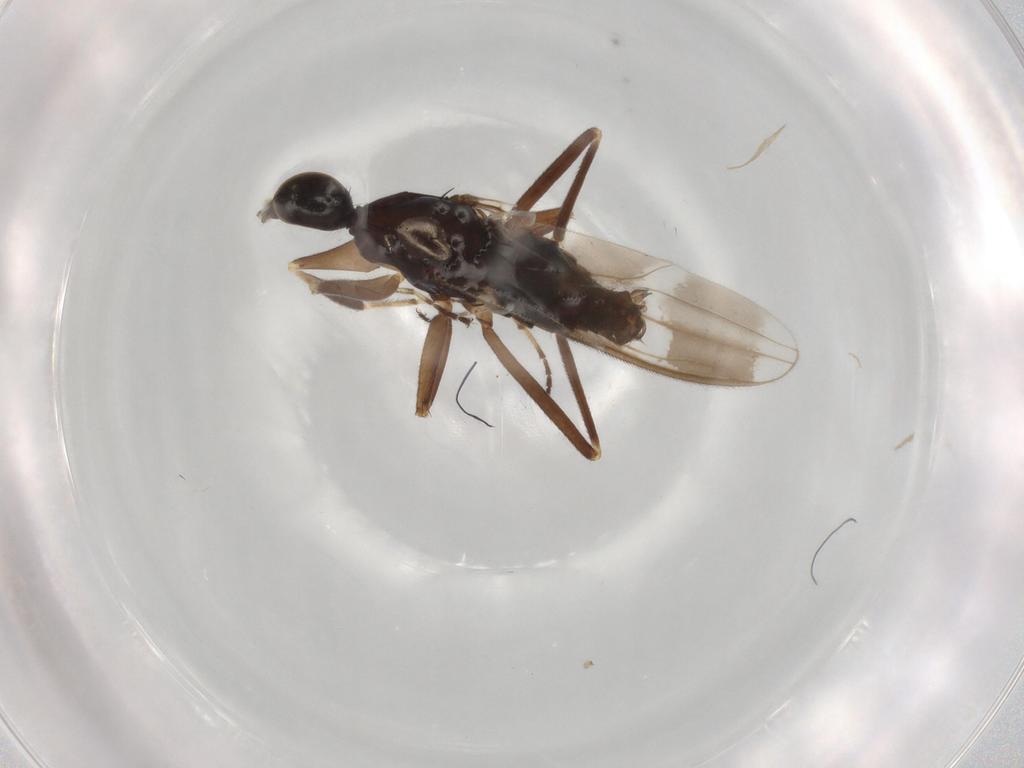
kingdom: Animalia
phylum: Arthropoda
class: Insecta
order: Diptera
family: Hybotidae
